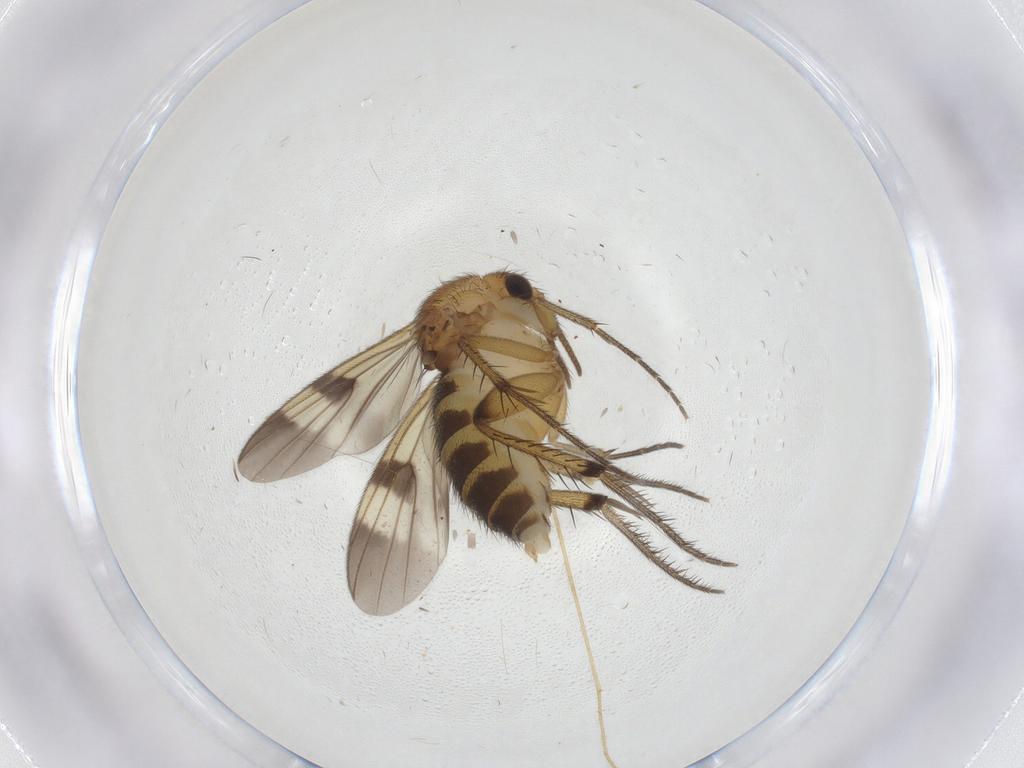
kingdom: Animalia
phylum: Arthropoda
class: Insecta
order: Diptera
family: Mycetophilidae
